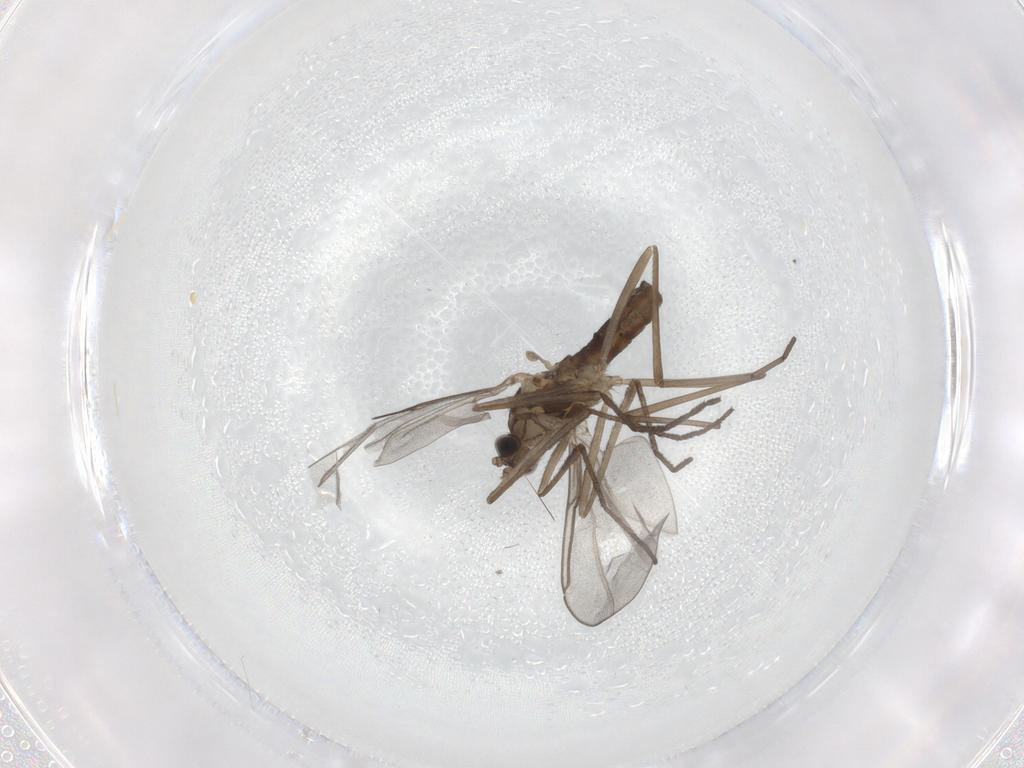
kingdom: Animalia
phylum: Arthropoda
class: Insecta
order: Diptera
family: Cecidomyiidae
